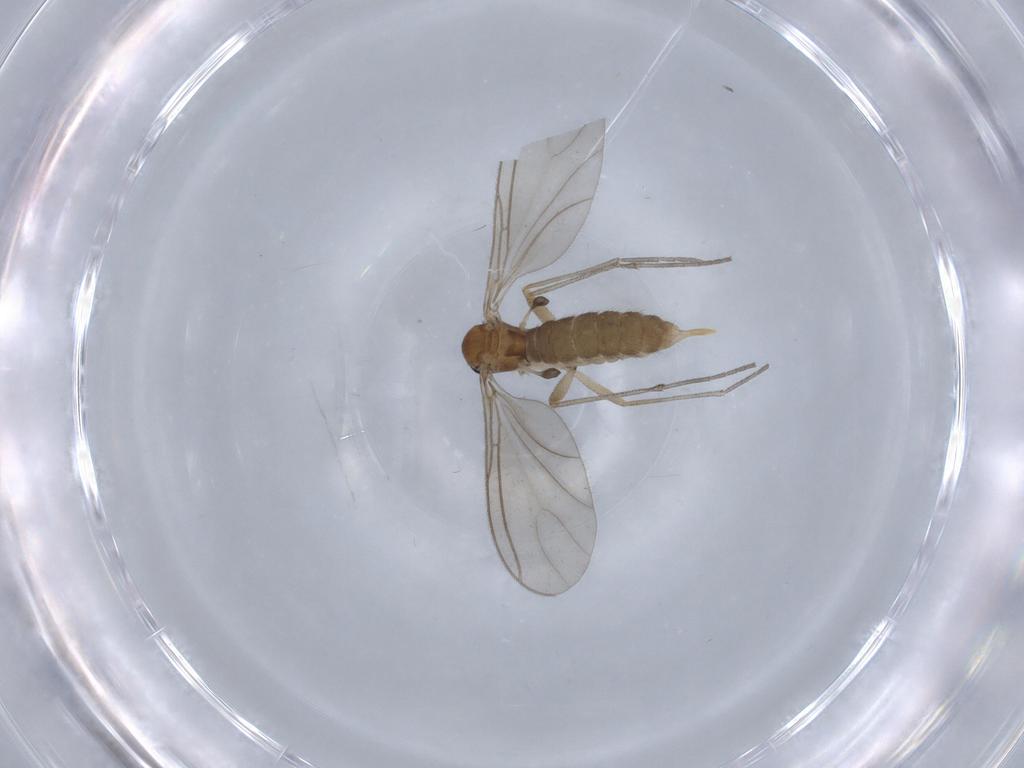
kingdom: Animalia
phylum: Arthropoda
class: Insecta
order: Diptera
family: Sciaridae
